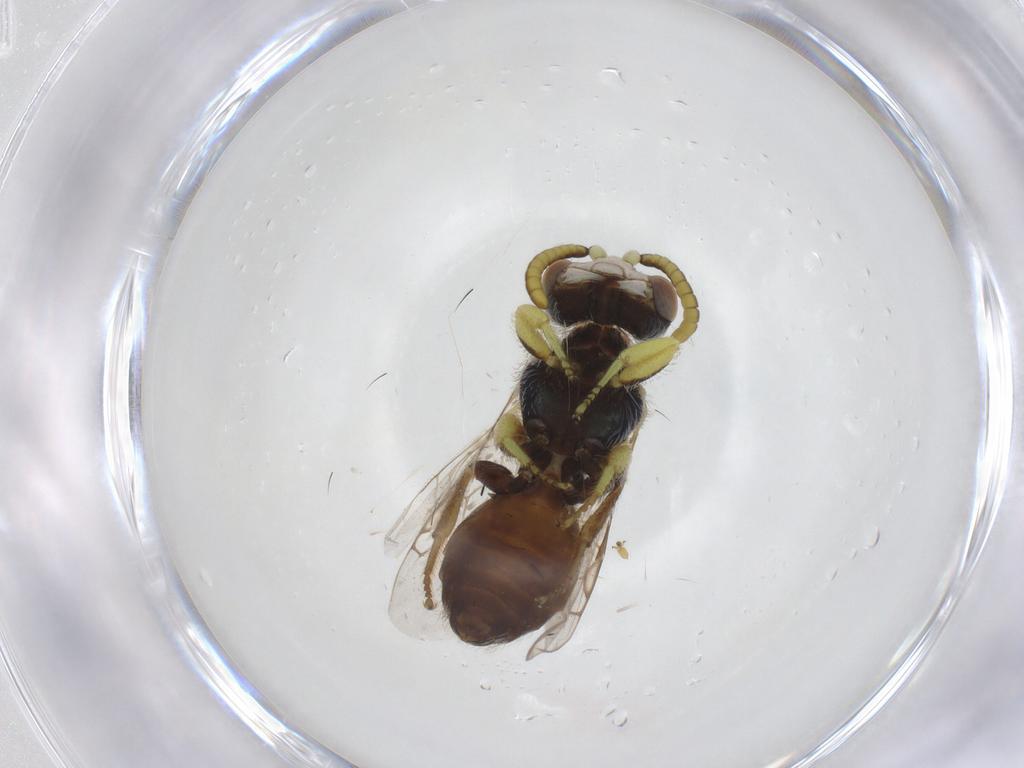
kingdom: Animalia
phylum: Arthropoda
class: Insecta
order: Hymenoptera
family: Andrenidae
